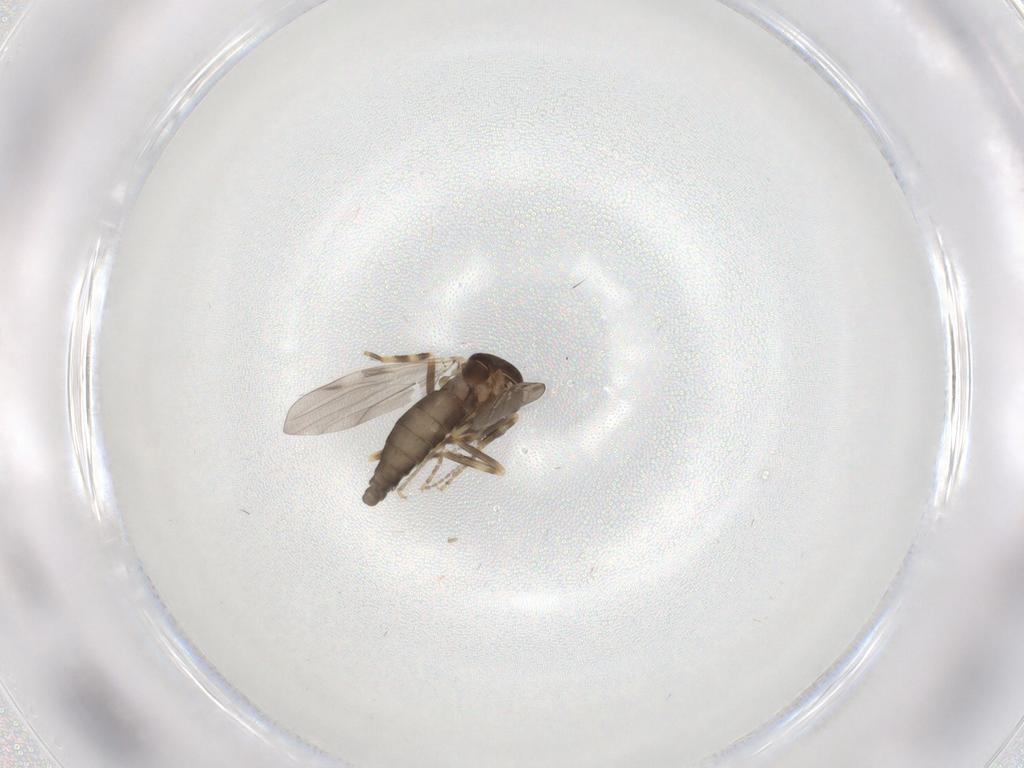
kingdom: Animalia
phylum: Arthropoda
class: Insecta
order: Diptera
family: Ceratopogonidae
